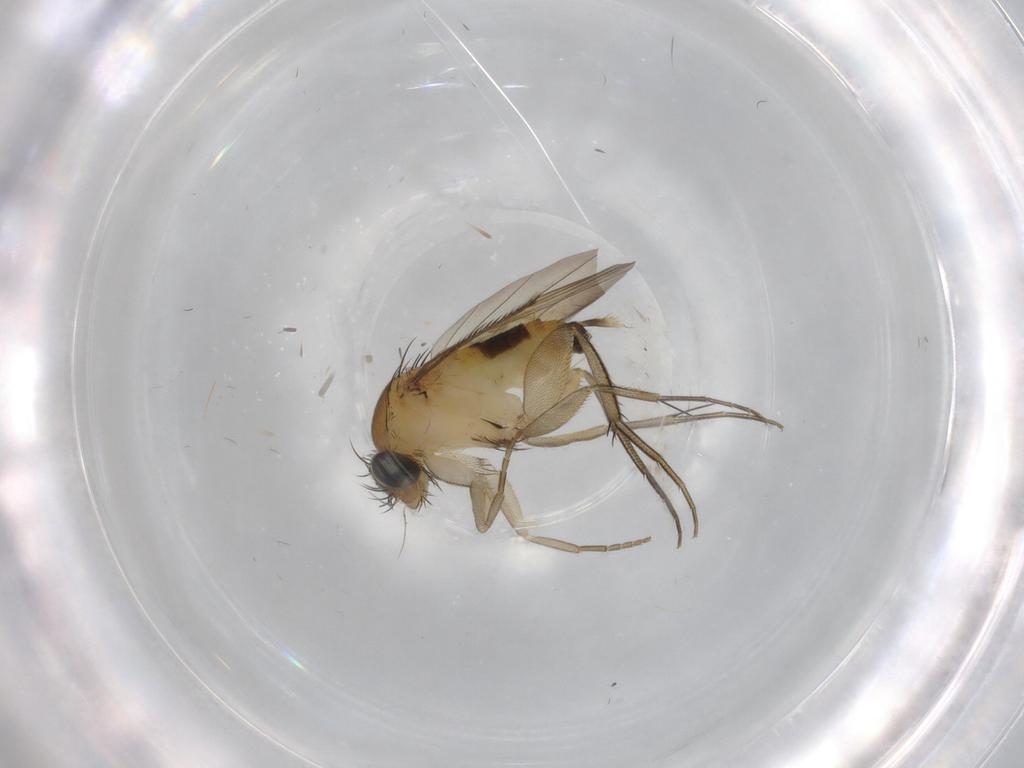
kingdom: Animalia
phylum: Arthropoda
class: Insecta
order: Diptera
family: Phoridae
